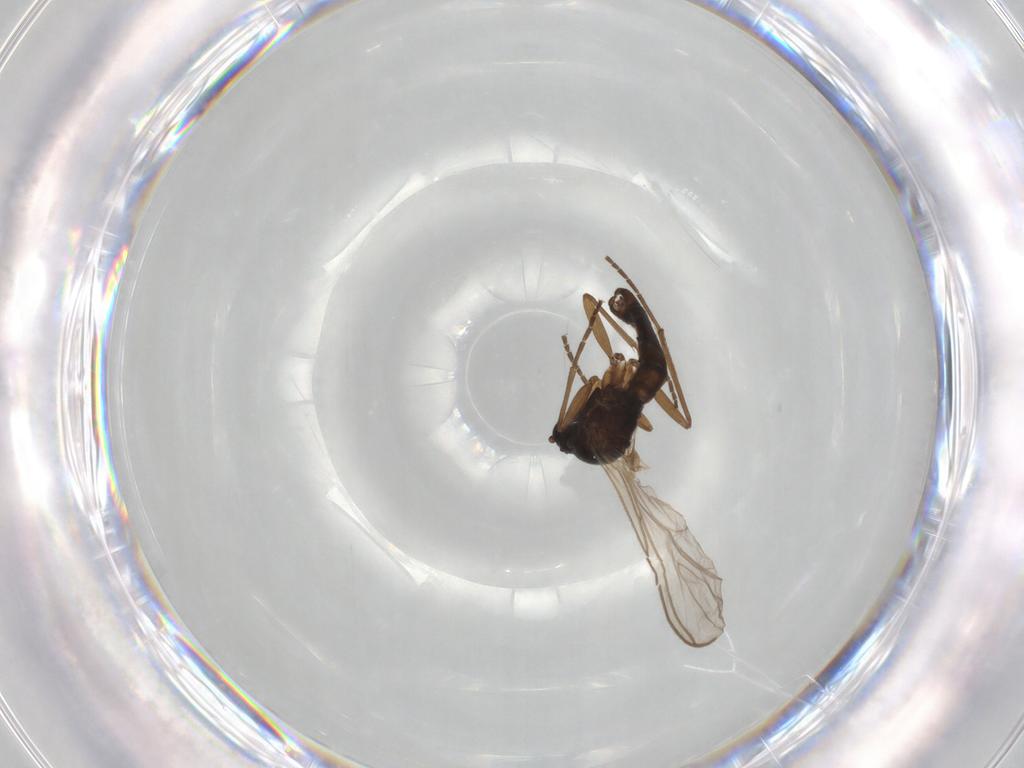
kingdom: Animalia
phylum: Arthropoda
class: Insecta
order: Diptera
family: Sciaridae
